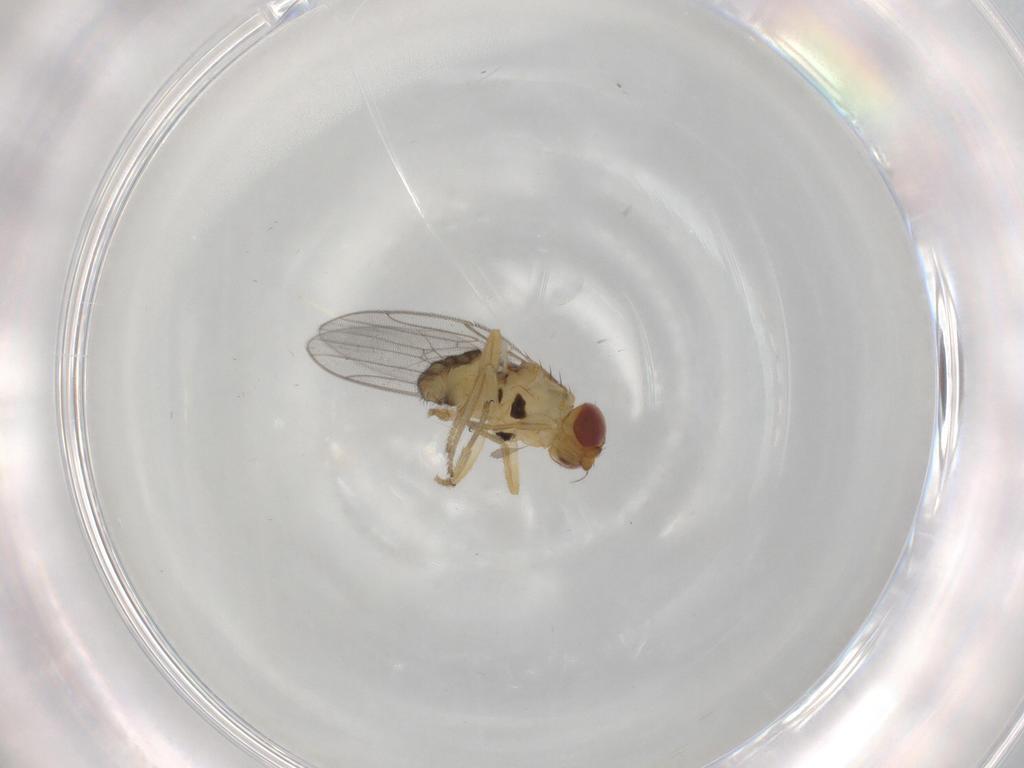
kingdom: Animalia
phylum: Arthropoda
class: Insecta
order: Diptera
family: Chloropidae
